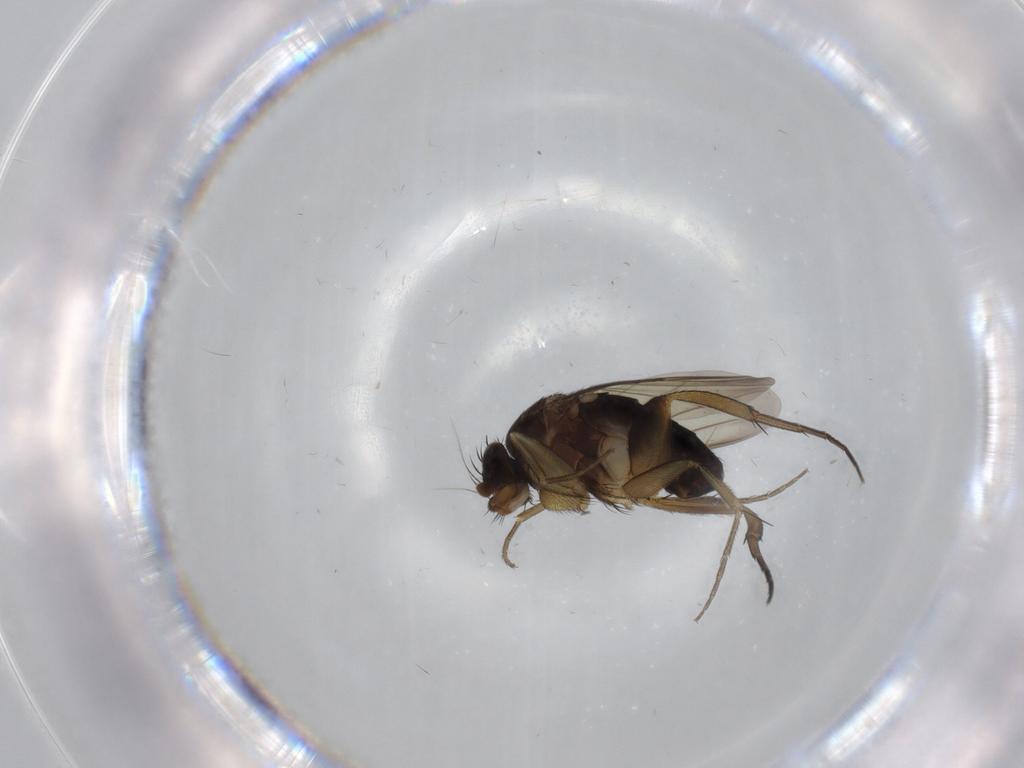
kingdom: Animalia
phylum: Arthropoda
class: Insecta
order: Diptera
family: Phoridae
